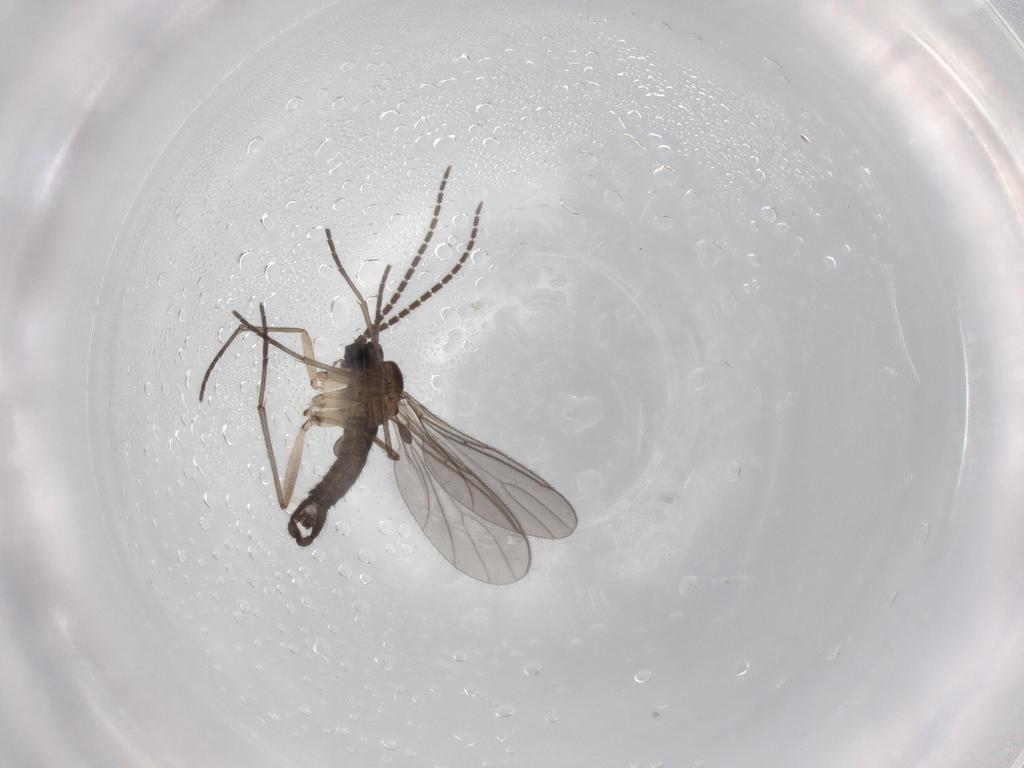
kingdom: Animalia
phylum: Arthropoda
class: Insecta
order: Diptera
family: Sciaridae
